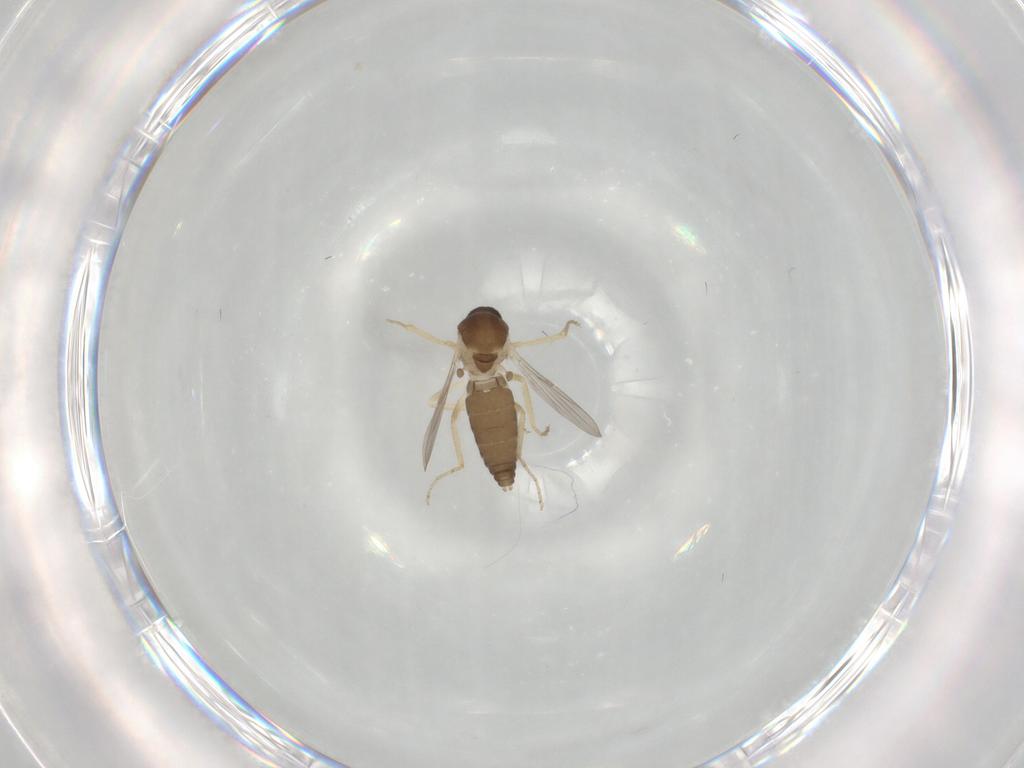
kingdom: Animalia
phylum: Arthropoda
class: Insecta
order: Diptera
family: Ceratopogonidae
